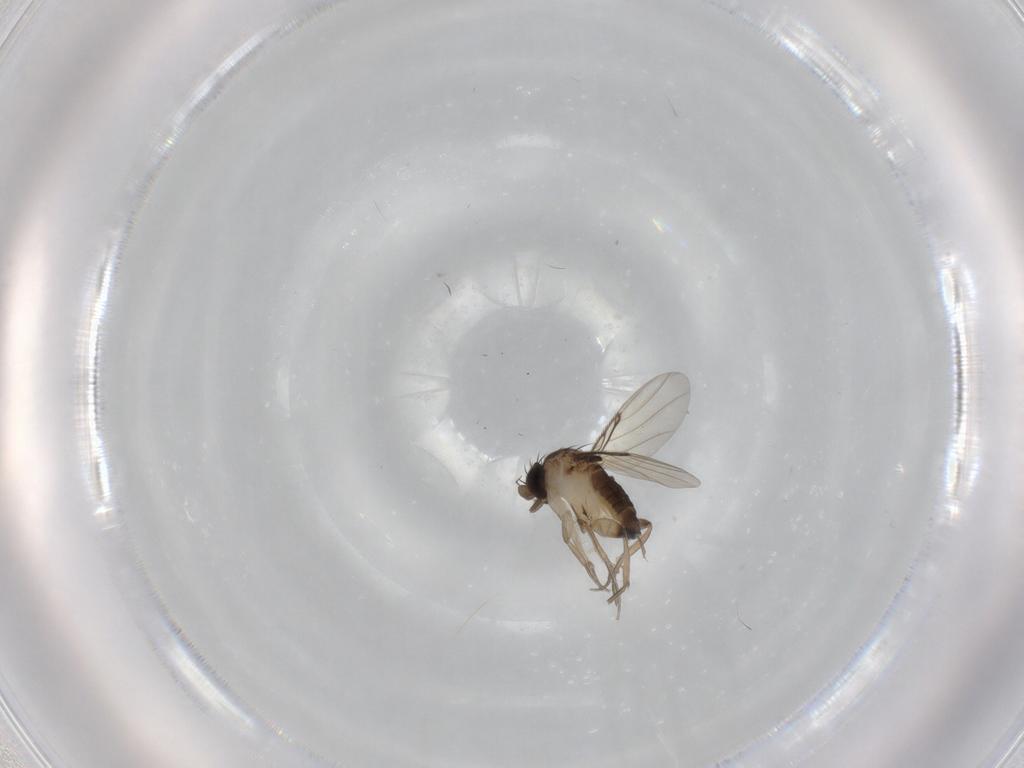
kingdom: Animalia
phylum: Arthropoda
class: Insecta
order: Diptera
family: Phoridae
